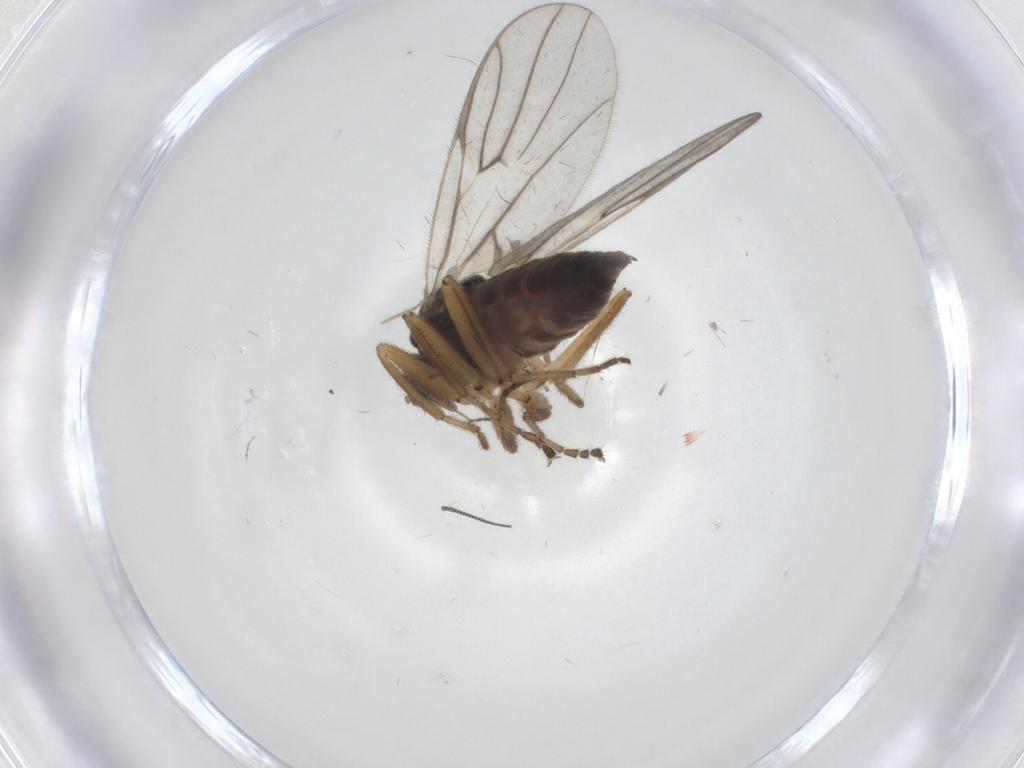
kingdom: Animalia
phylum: Arthropoda
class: Insecta
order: Diptera
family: Hybotidae
